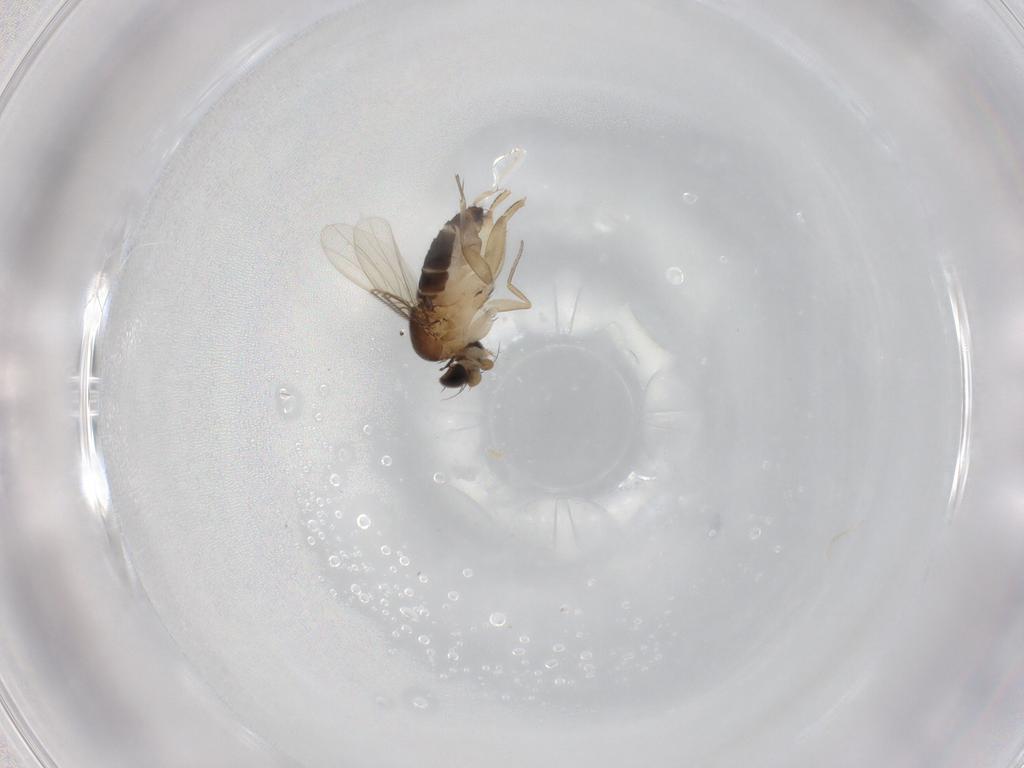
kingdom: Animalia
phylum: Arthropoda
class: Insecta
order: Diptera
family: Phoridae
